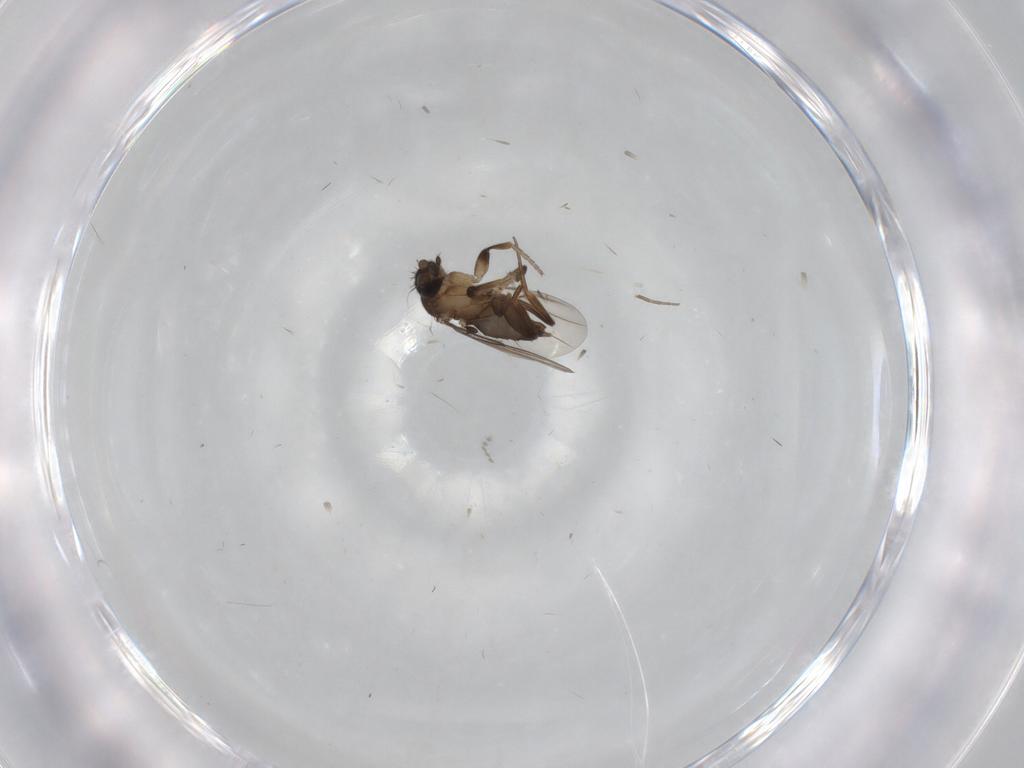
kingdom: Animalia
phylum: Arthropoda
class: Insecta
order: Diptera
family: Phoridae
